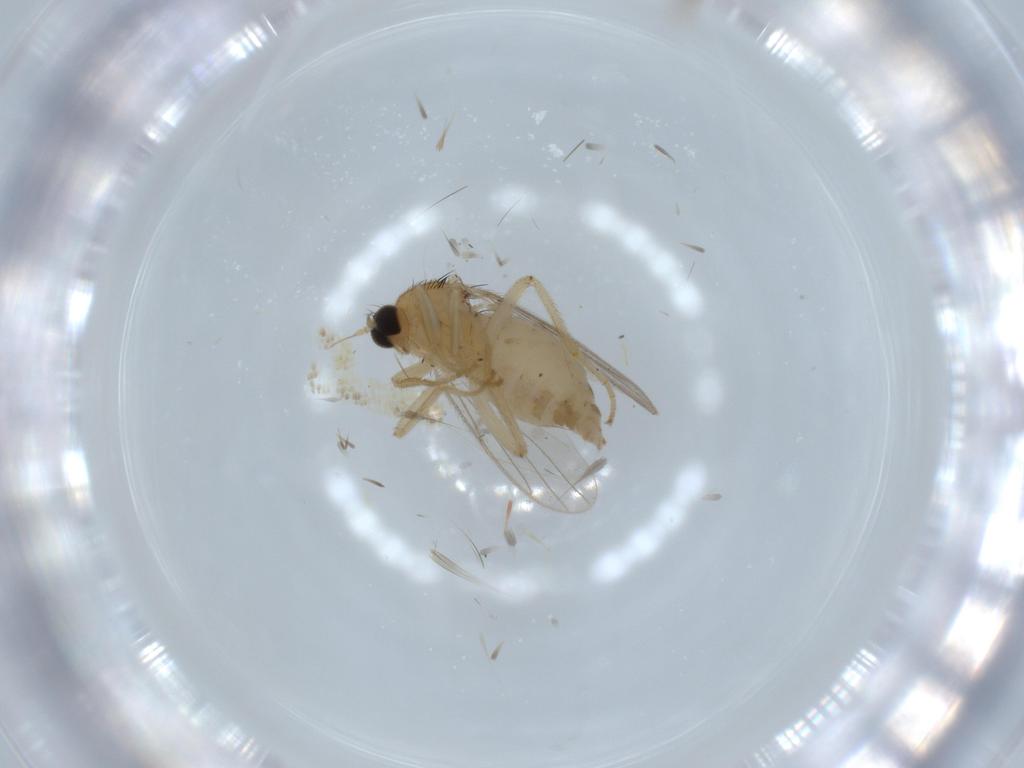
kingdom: Animalia
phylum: Arthropoda
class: Insecta
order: Diptera
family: Hybotidae
